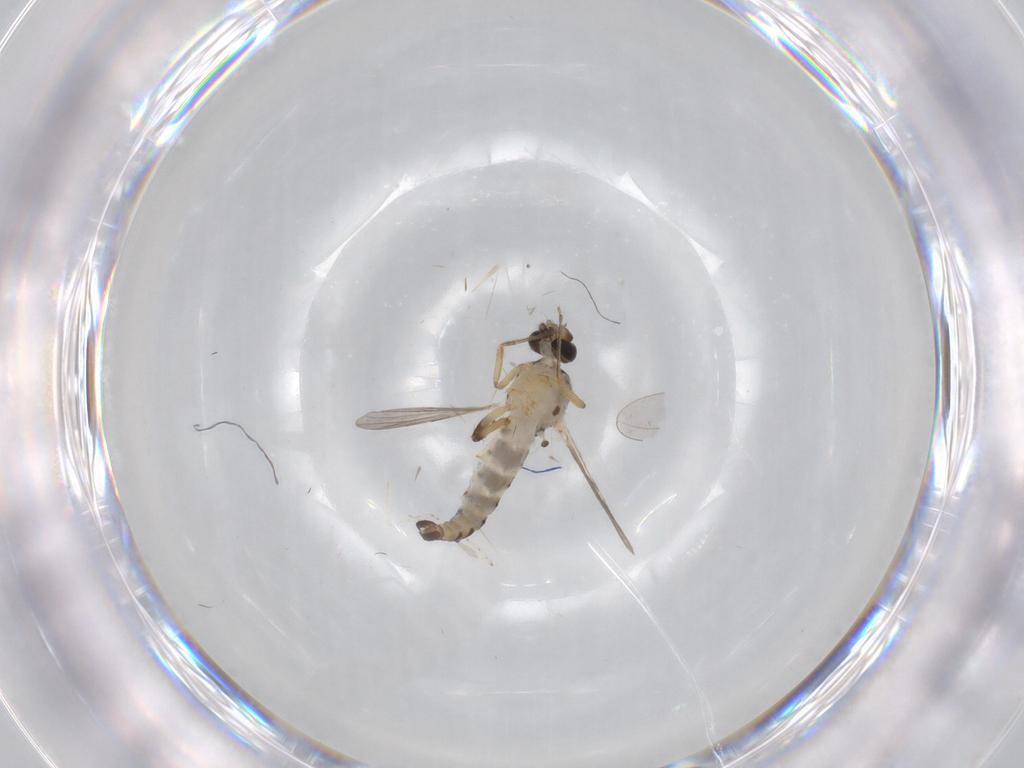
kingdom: Animalia
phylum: Arthropoda
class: Insecta
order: Diptera
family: Ceratopogonidae
